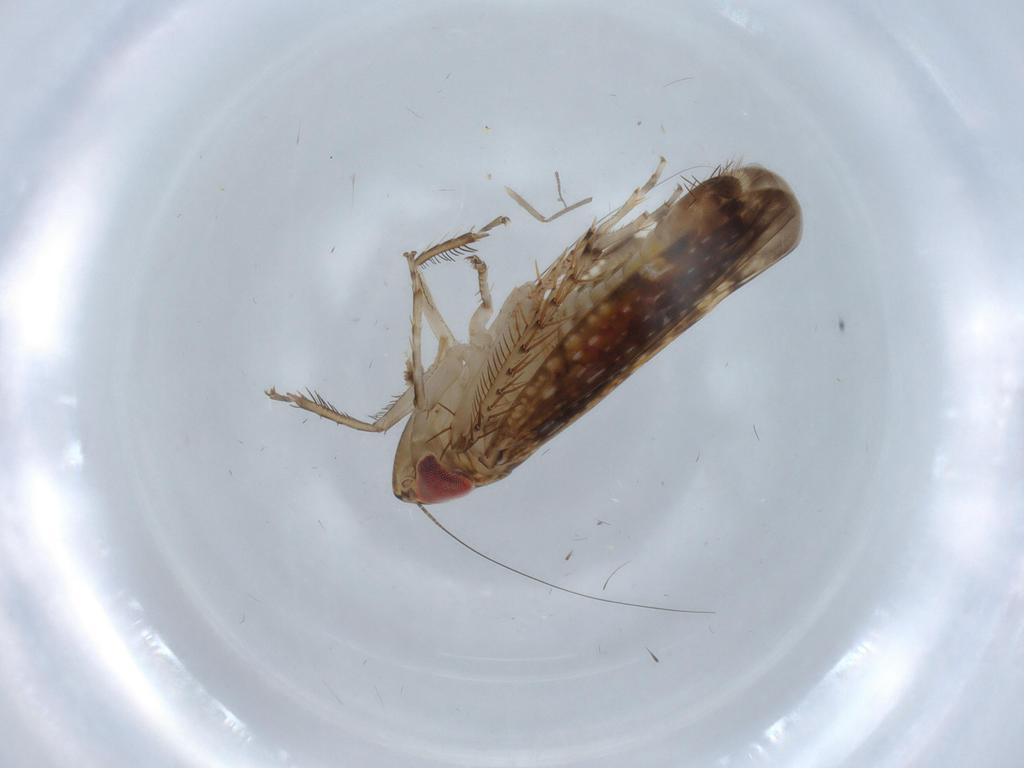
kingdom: Animalia
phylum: Arthropoda
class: Insecta
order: Hemiptera
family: Cicadellidae
